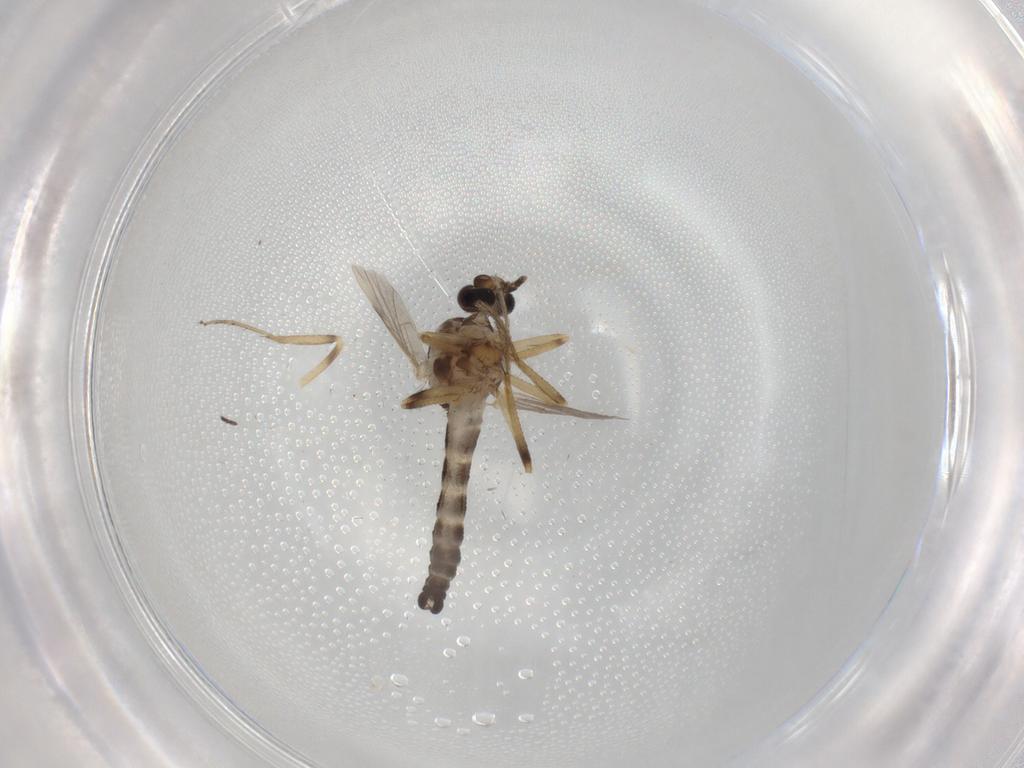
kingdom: Animalia
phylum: Arthropoda
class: Insecta
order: Diptera
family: Ceratopogonidae
